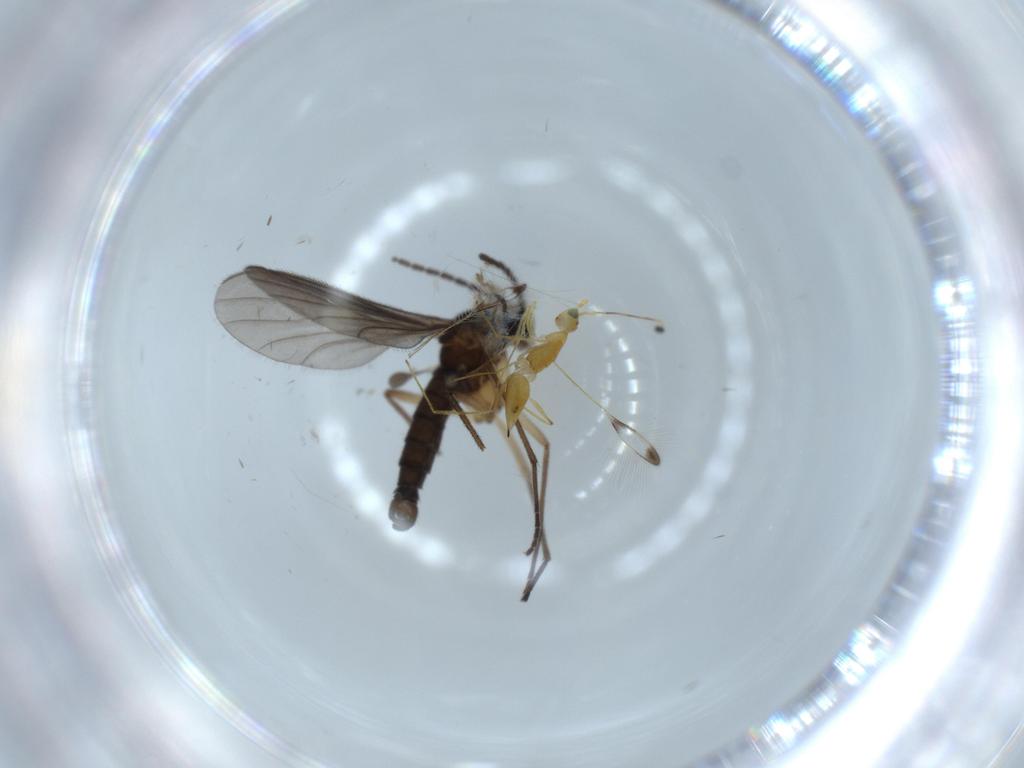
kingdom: Animalia
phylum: Arthropoda
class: Insecta
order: Diptera
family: Sciaridae
